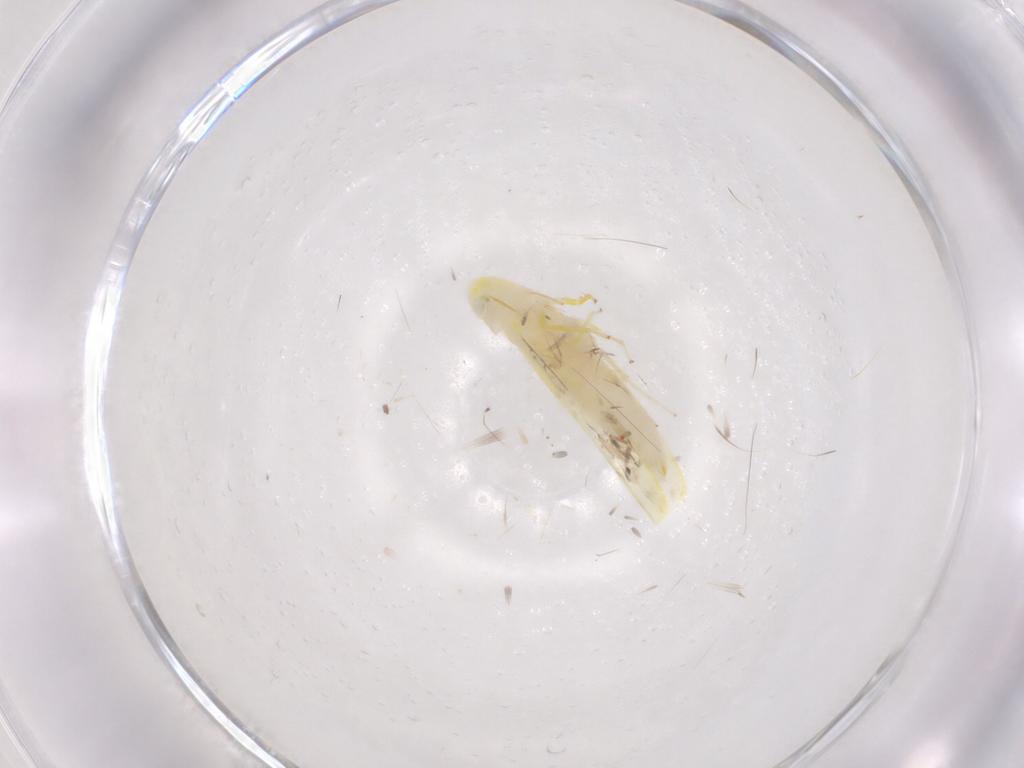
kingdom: Animalia
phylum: Arthropoda
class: Insecta
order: Hemiptera
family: Cicadellidae
